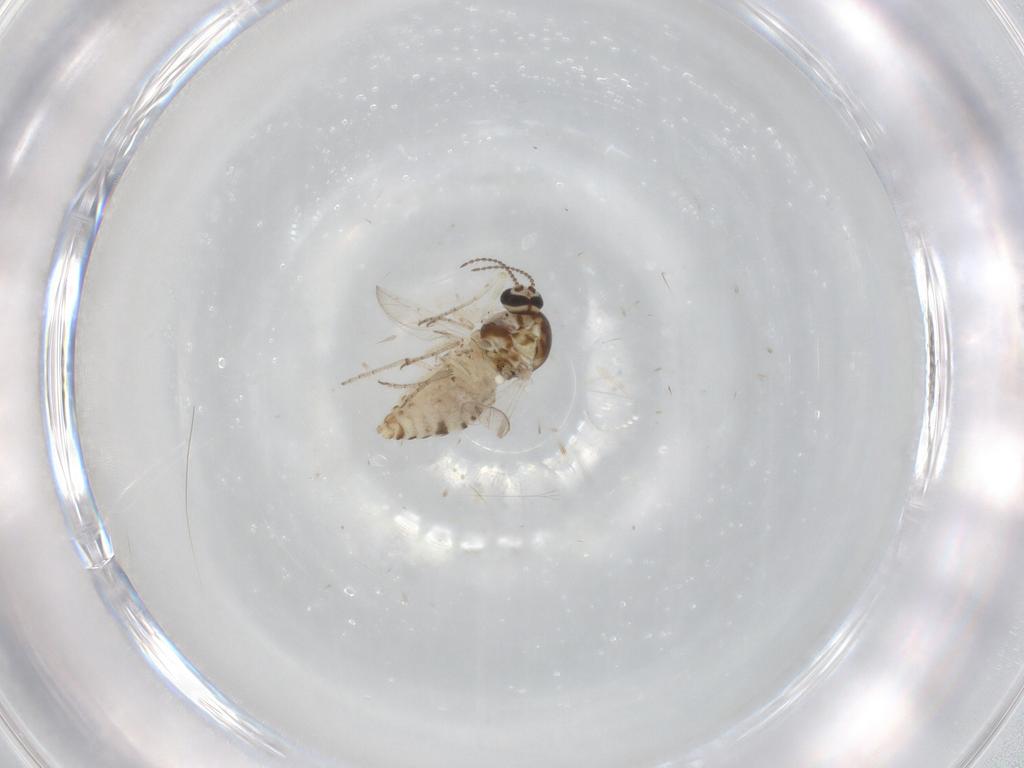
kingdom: Animalia
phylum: Arthropoda
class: Insecta
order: Diptera
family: Ceratopogonidae
